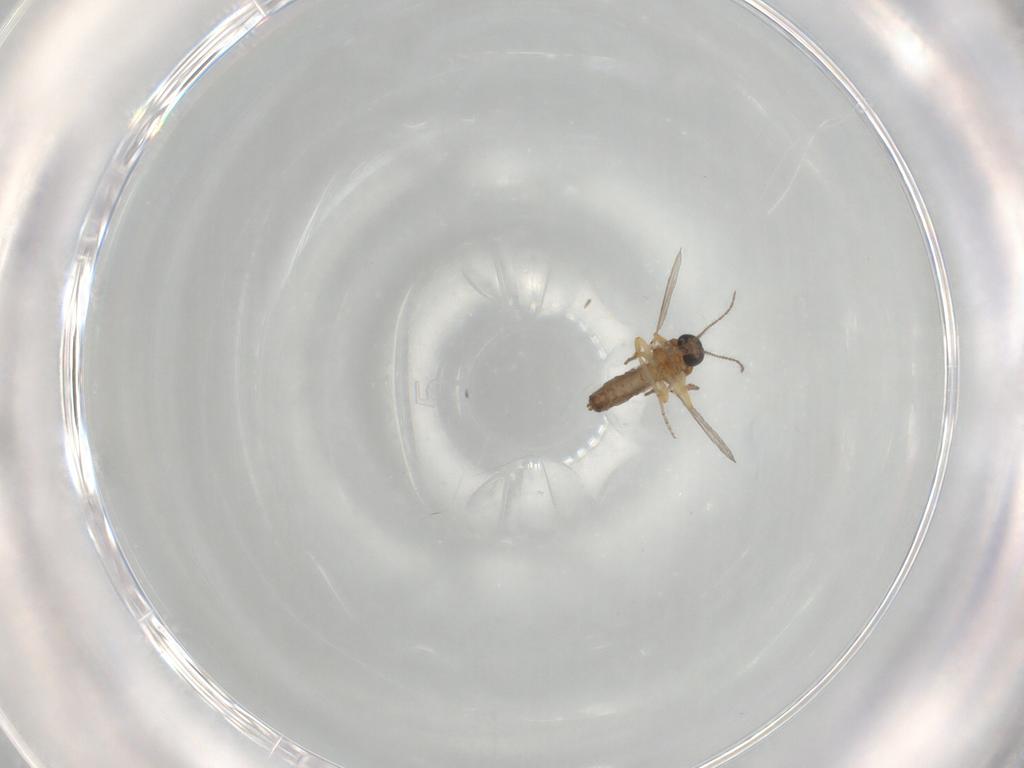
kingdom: Animalia
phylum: Arthropoda
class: Insecta
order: Diptera
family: Ceratopogonidae
